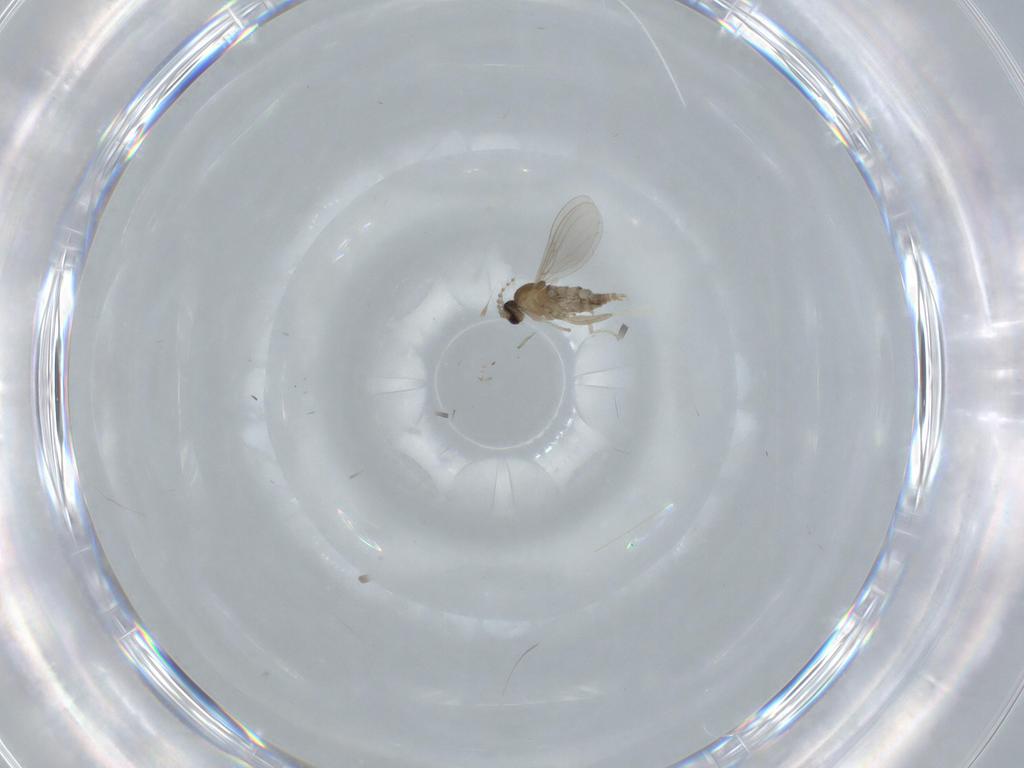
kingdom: Animalia
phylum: Arthropoda
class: Insecta
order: Diptera
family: Cecidomyiidae
